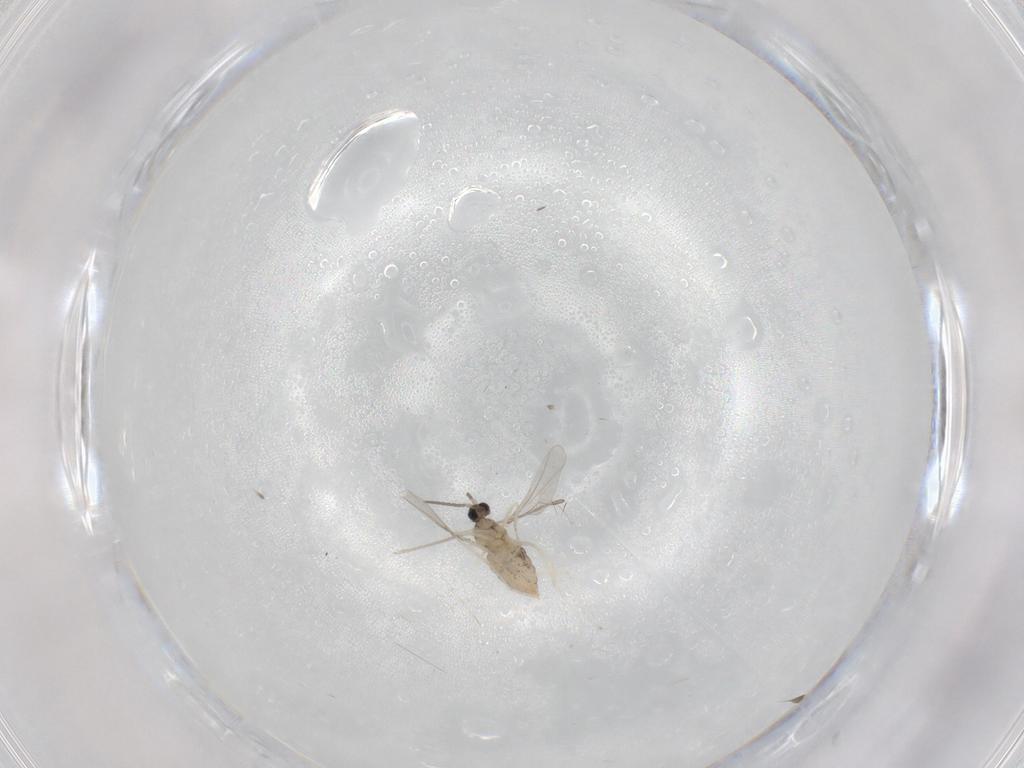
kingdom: Animalia
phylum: Arthropoda
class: Insecta
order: Diptera
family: Cecidomyiidae
